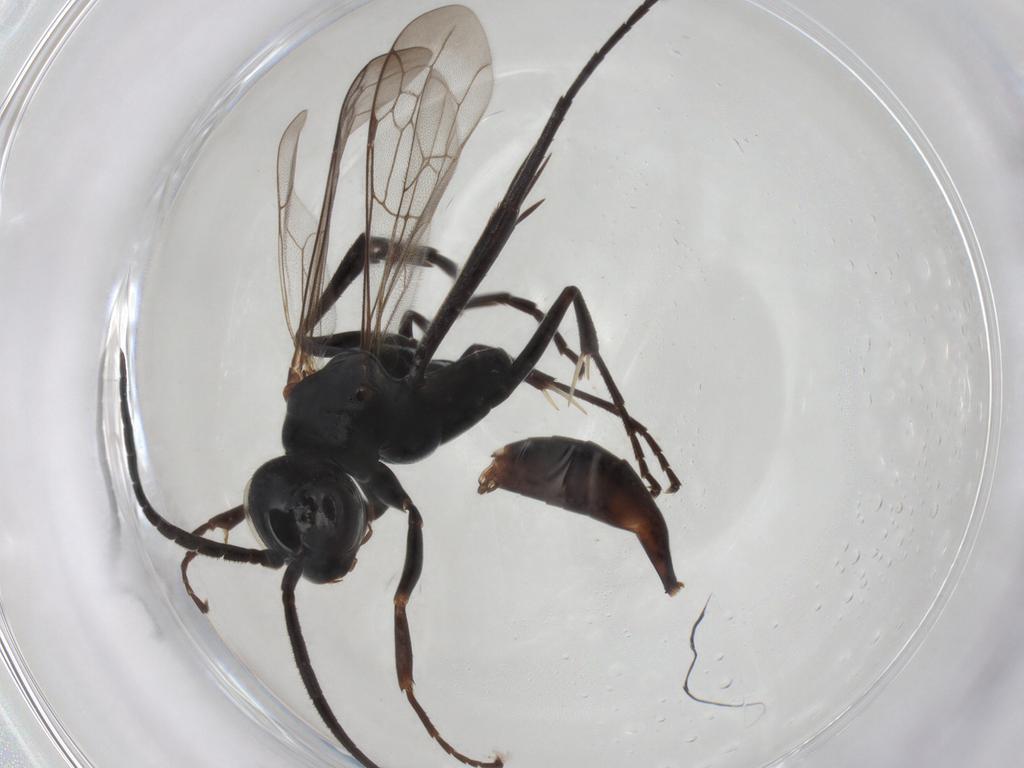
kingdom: Animalia
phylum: Arthropoda
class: Insecta
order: Hymenoptera
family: Pompilidae
